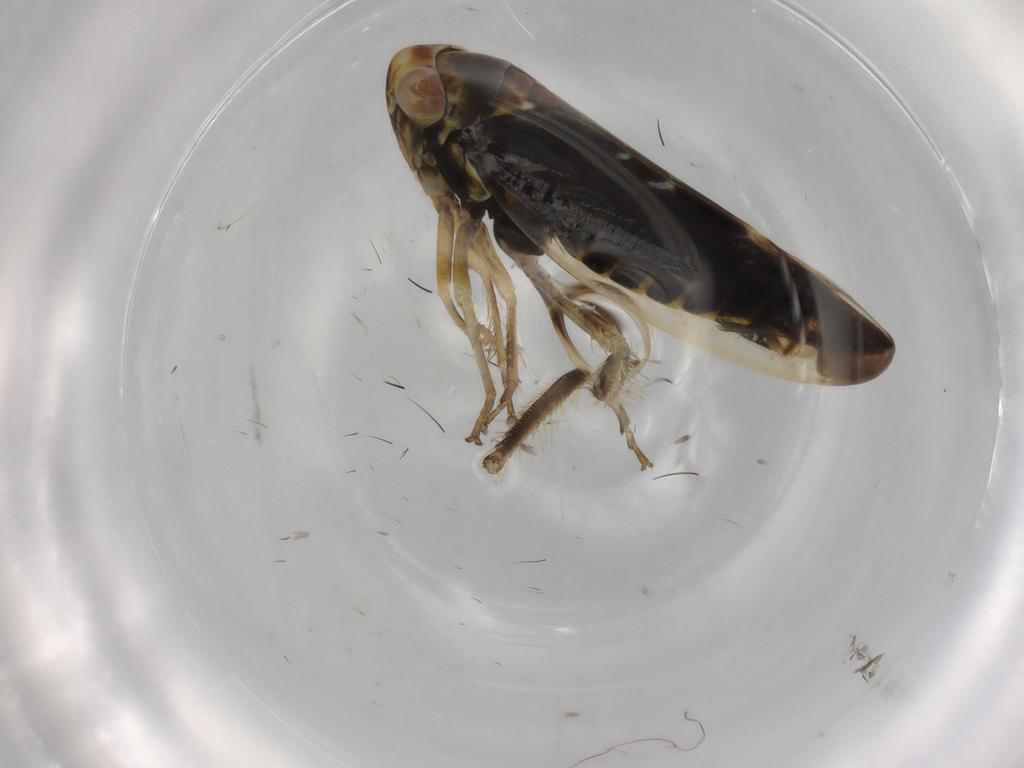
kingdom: Animalia
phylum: Arthropoda
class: Insecta
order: Hemiptera
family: Cicadellidae
